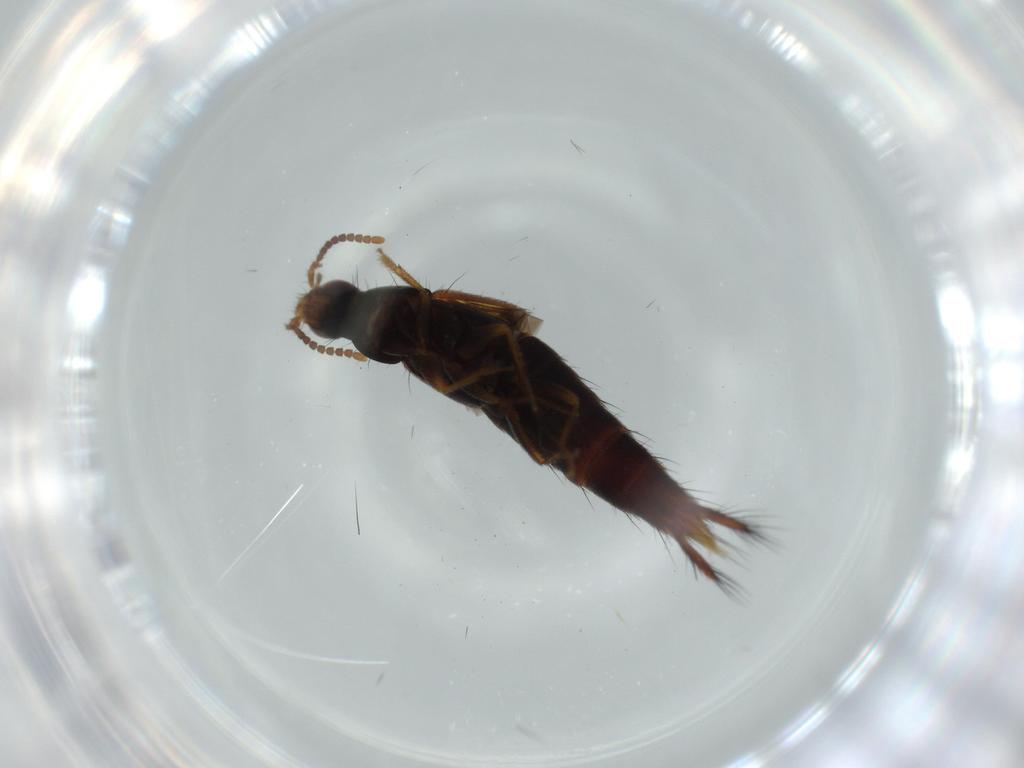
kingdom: Animalia
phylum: Arthropoda
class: Insecta
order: Coleoptera
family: Staphylinidae
